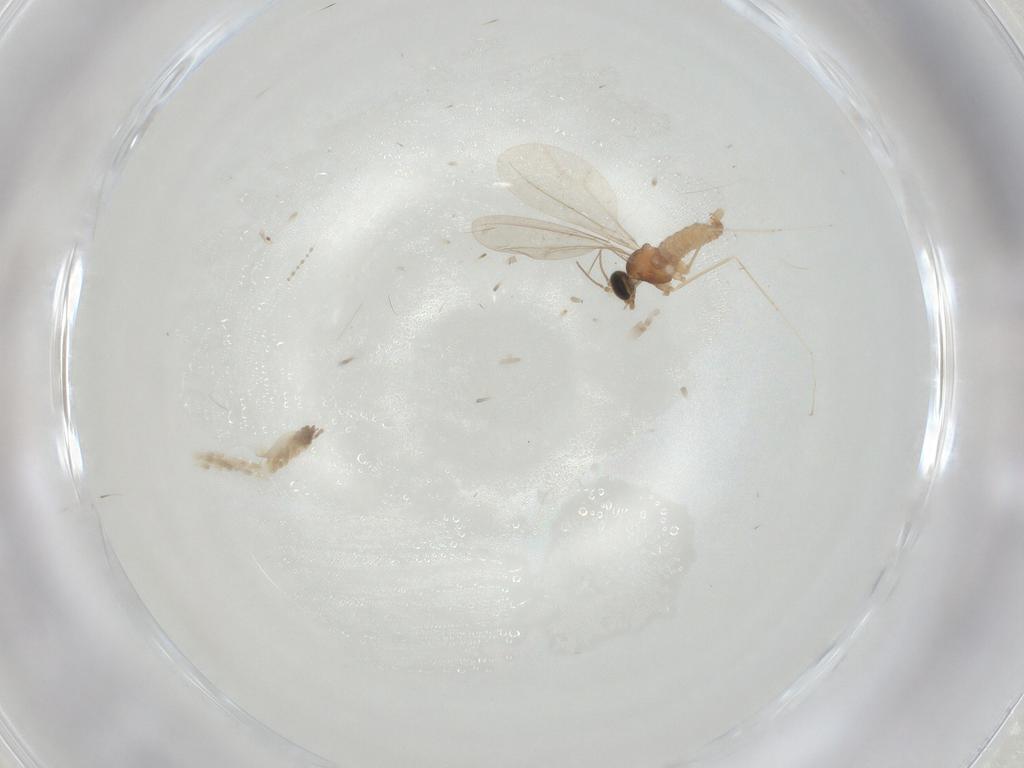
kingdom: Animalia
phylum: Arthropoda
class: Insecta
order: Diptera
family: Cecidomyiidae
